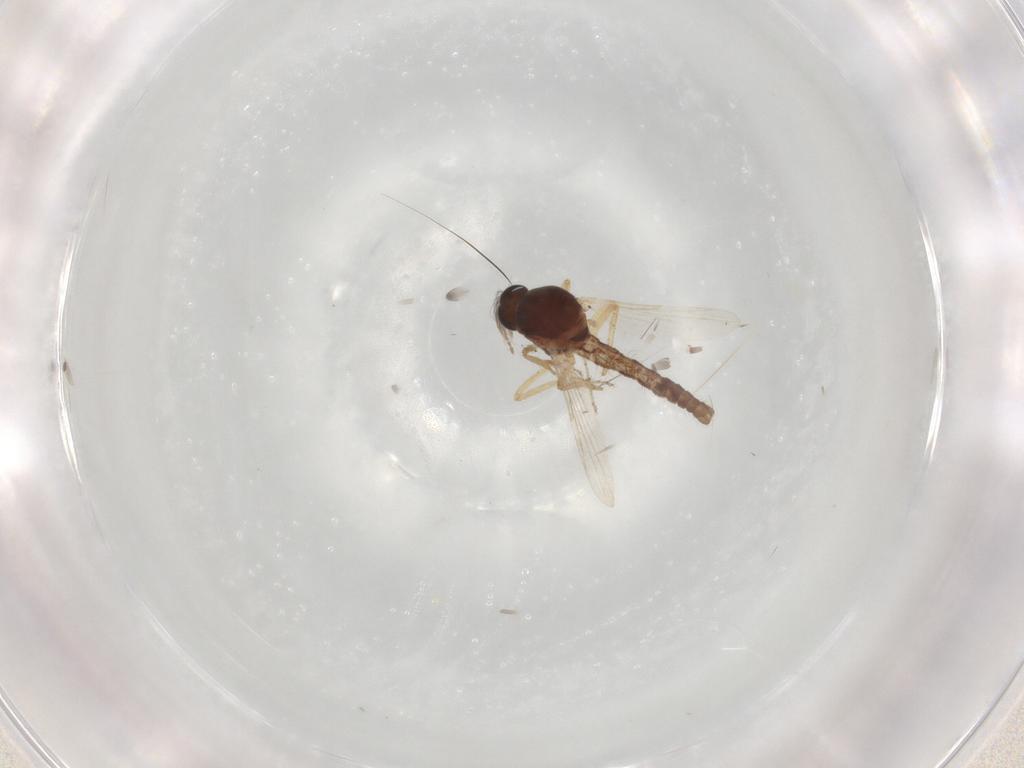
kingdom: Animalia
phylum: Arthropoda
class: Insecta
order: Diptera
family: Ceratopogonidae
